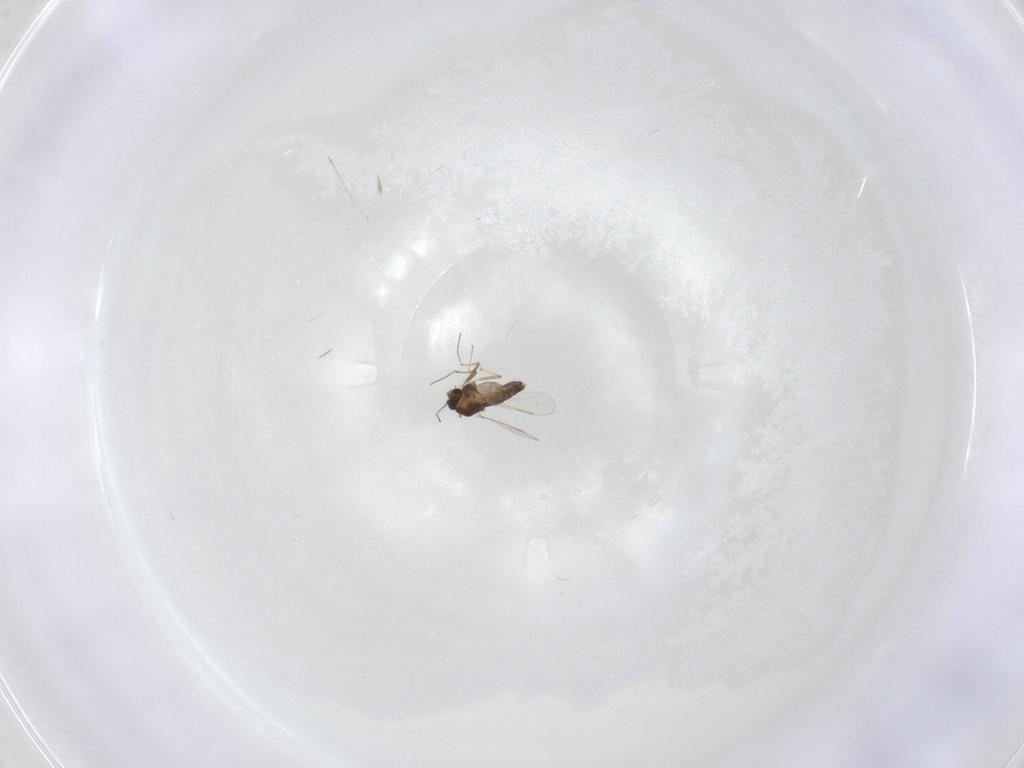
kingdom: Animalia
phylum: Arthropoda
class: Insecta
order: Diptera
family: Chironomidae
